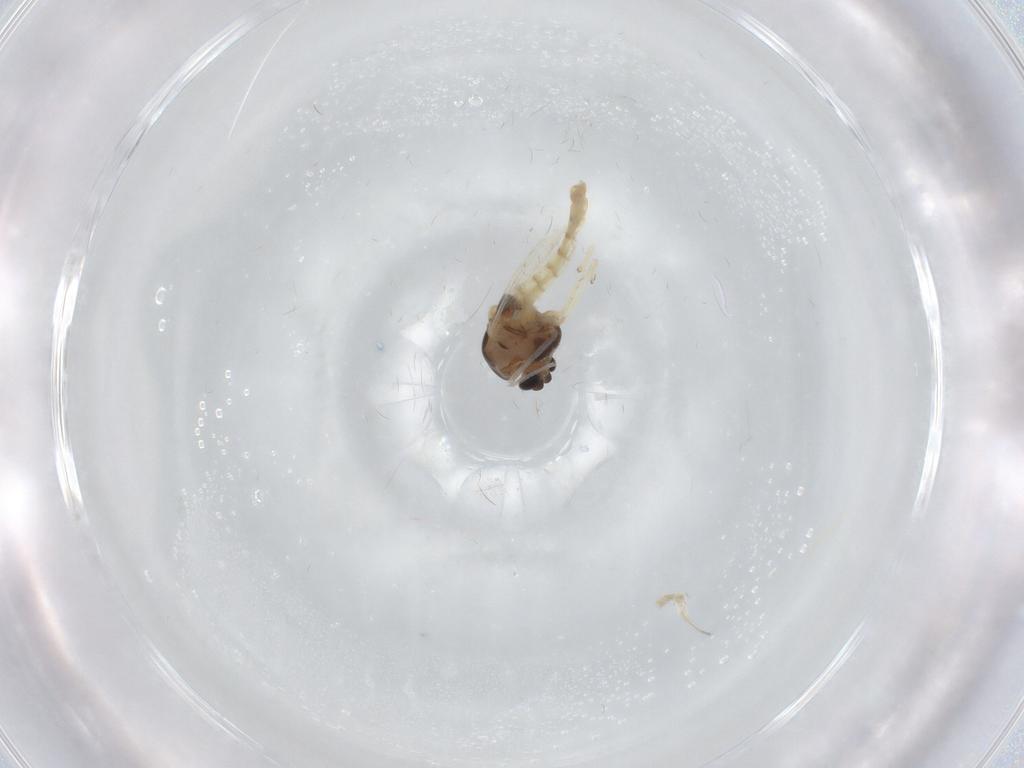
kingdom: Animalia
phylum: Arthropoda
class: Insecta
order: Diptera
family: Chironomidae
